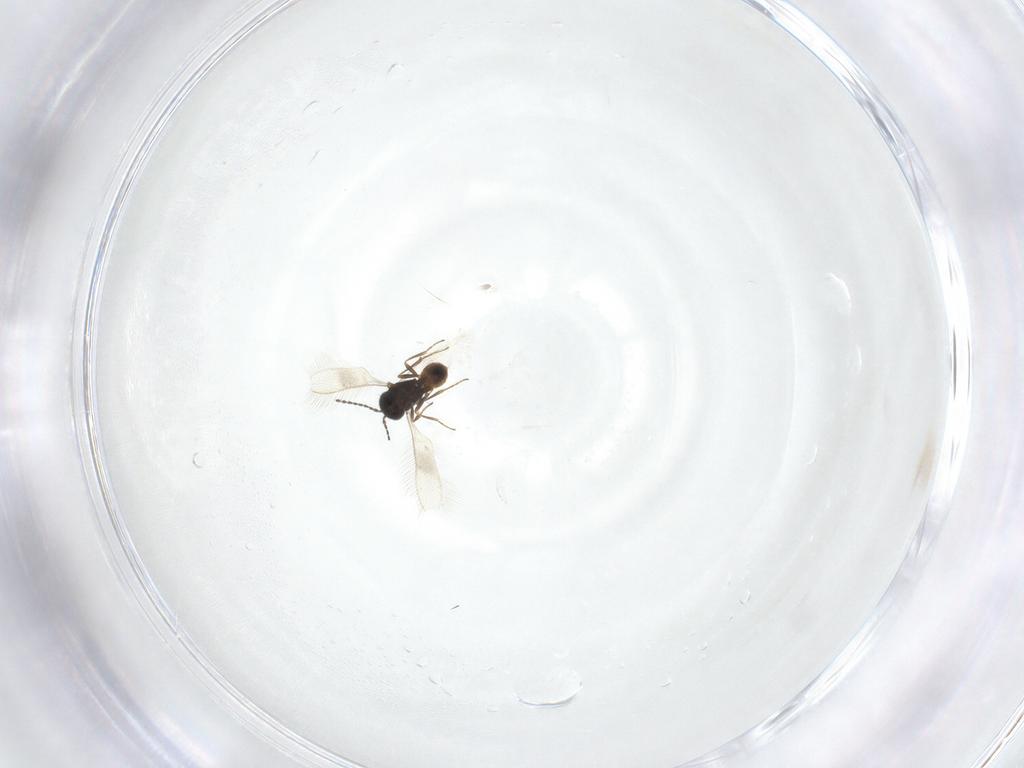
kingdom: Animalia
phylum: Arthropoda
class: Insecta
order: Hymenoptera
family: Scelionidae
